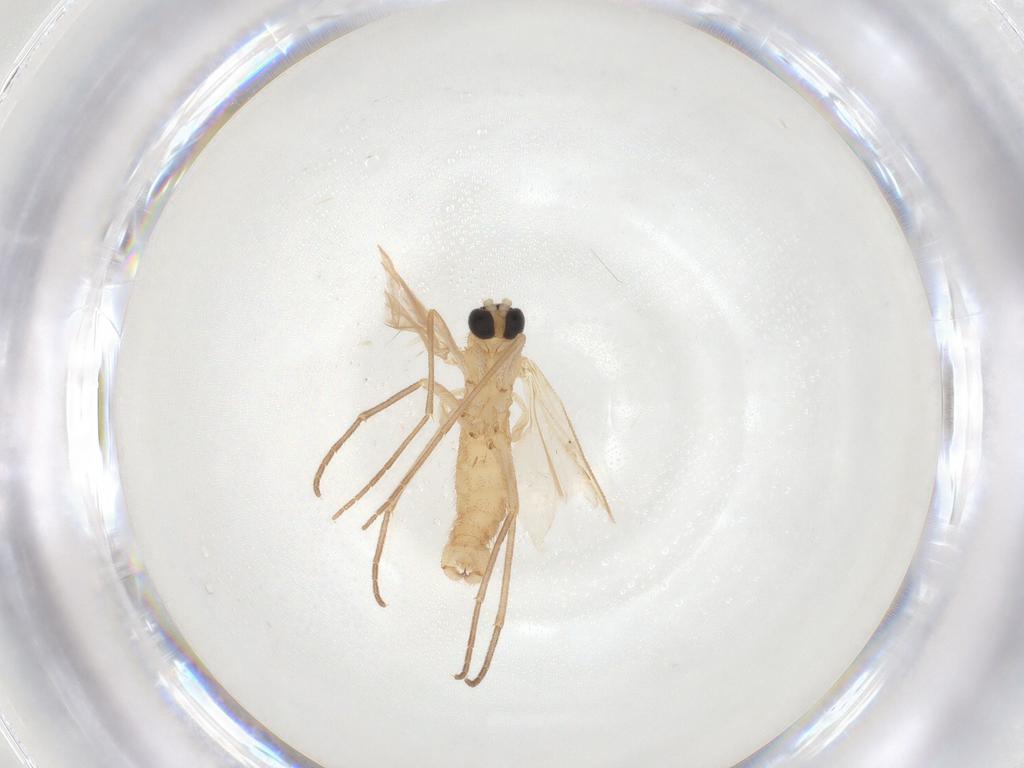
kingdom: Animalia
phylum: Arthropoda
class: Insecta
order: Diptera
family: Cecidomyiidae
